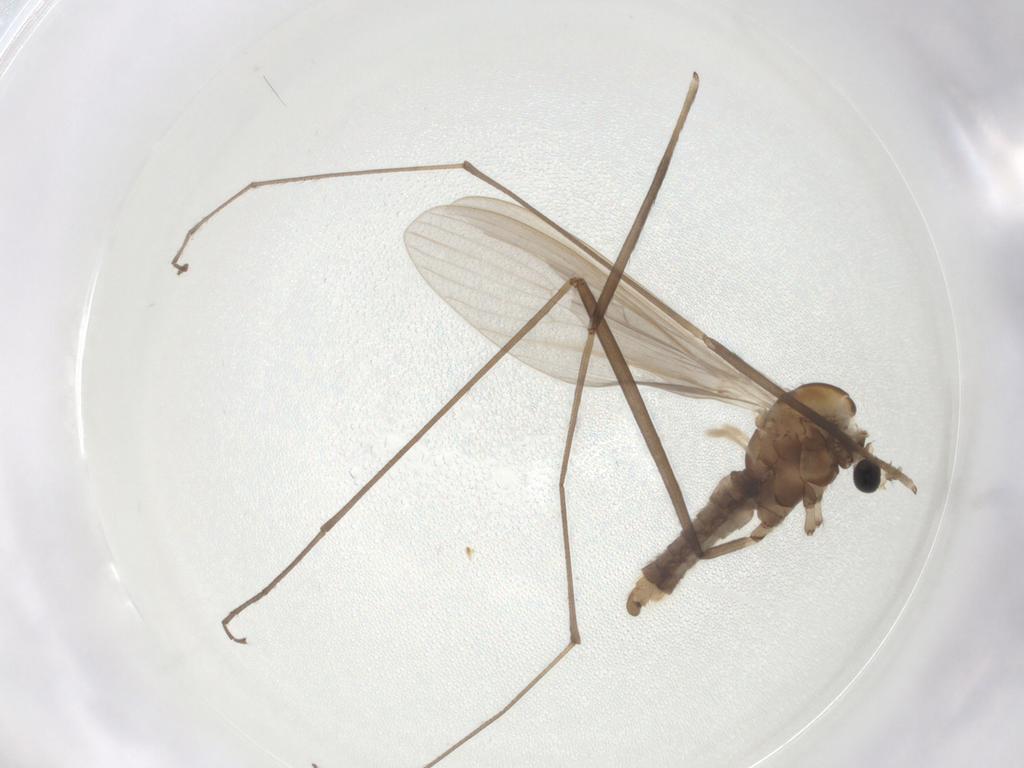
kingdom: Animalia
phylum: Arthropoda
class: Insecta
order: Diptera
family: Limoniidae
